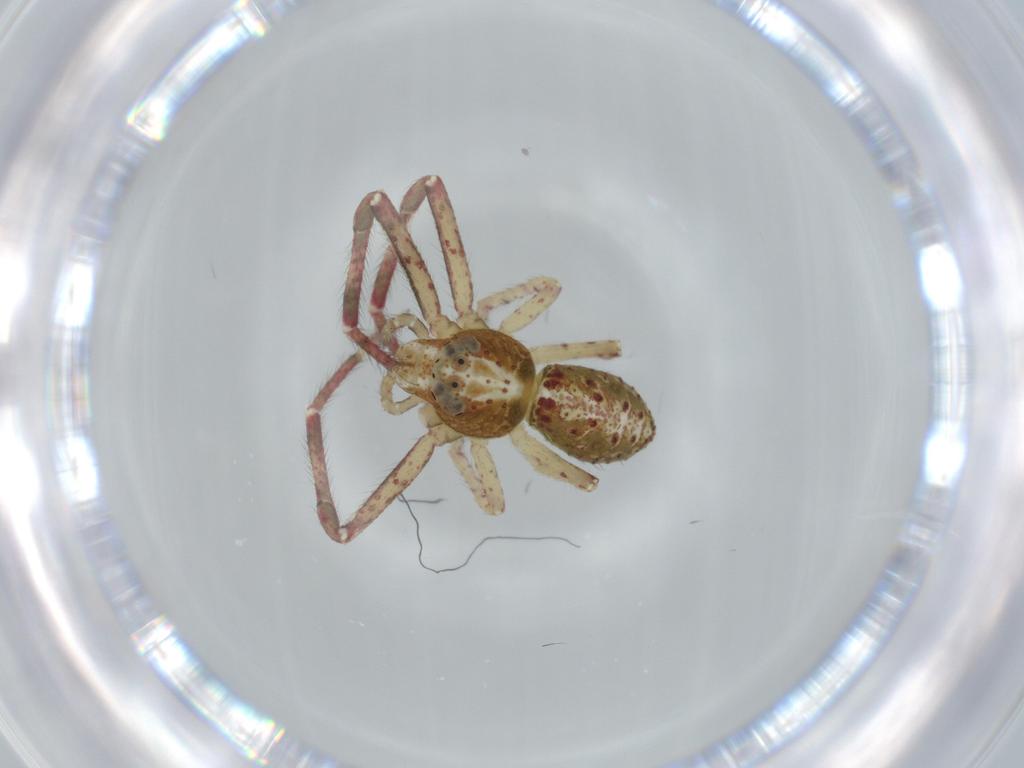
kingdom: Animalia
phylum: Arthropoda
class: Arachnida
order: Araneae
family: Thomisidae
